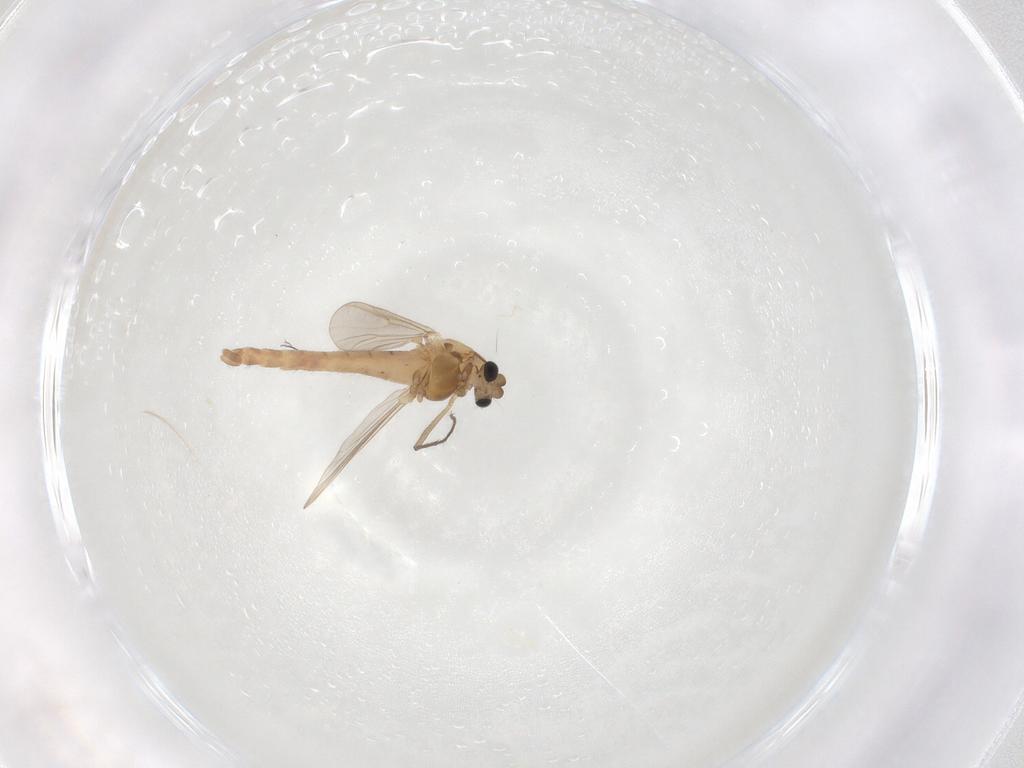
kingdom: Animalia
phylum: Arthropoda
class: Insecta
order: Diptera
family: Chironomidae
